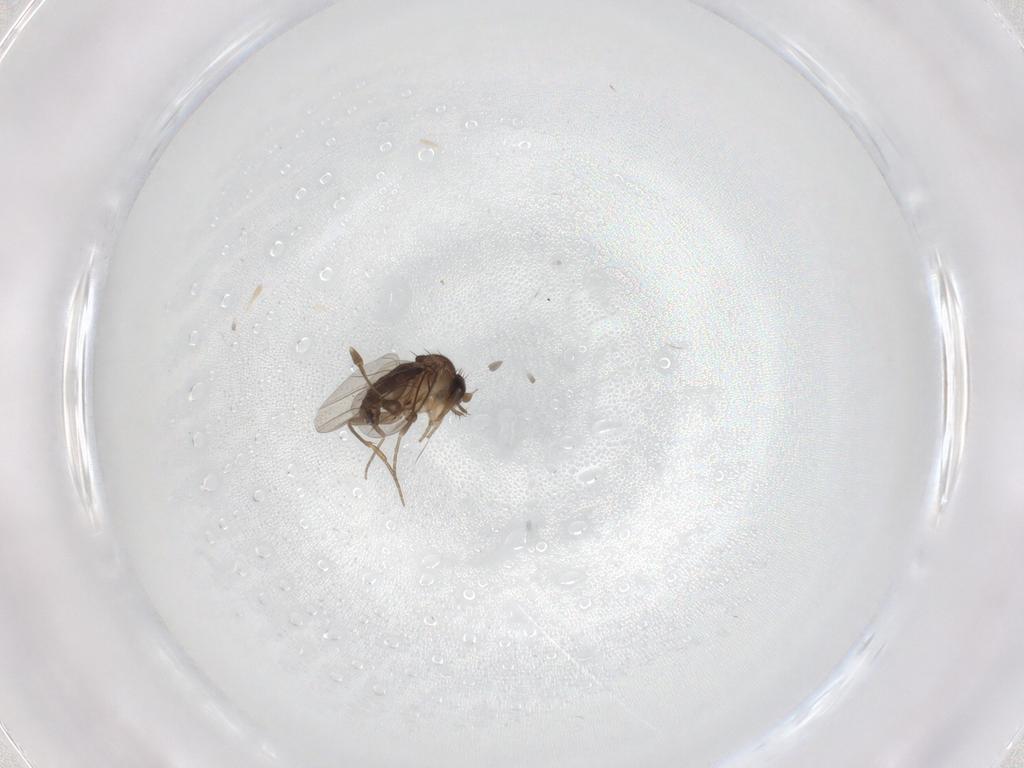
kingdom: Animalia
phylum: Arthropoda
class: Insecta
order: Diptera
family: Phoridae
